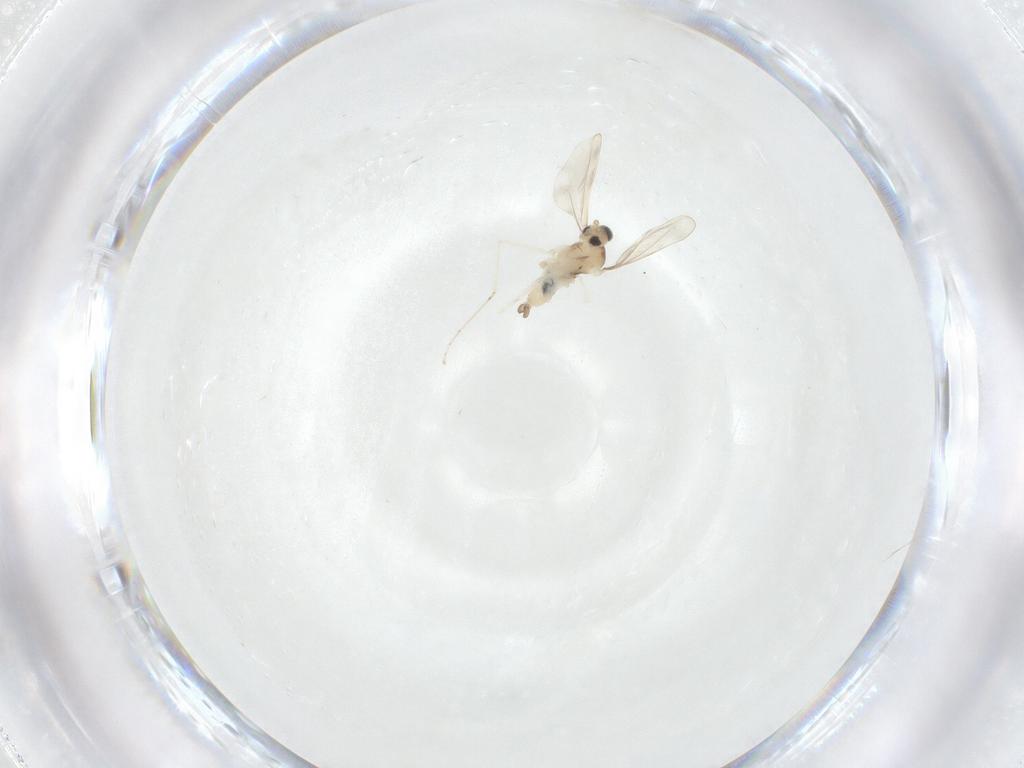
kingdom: Animalia
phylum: Arthropoda
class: Insecta
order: Diptera
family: Cecidomyiidae
